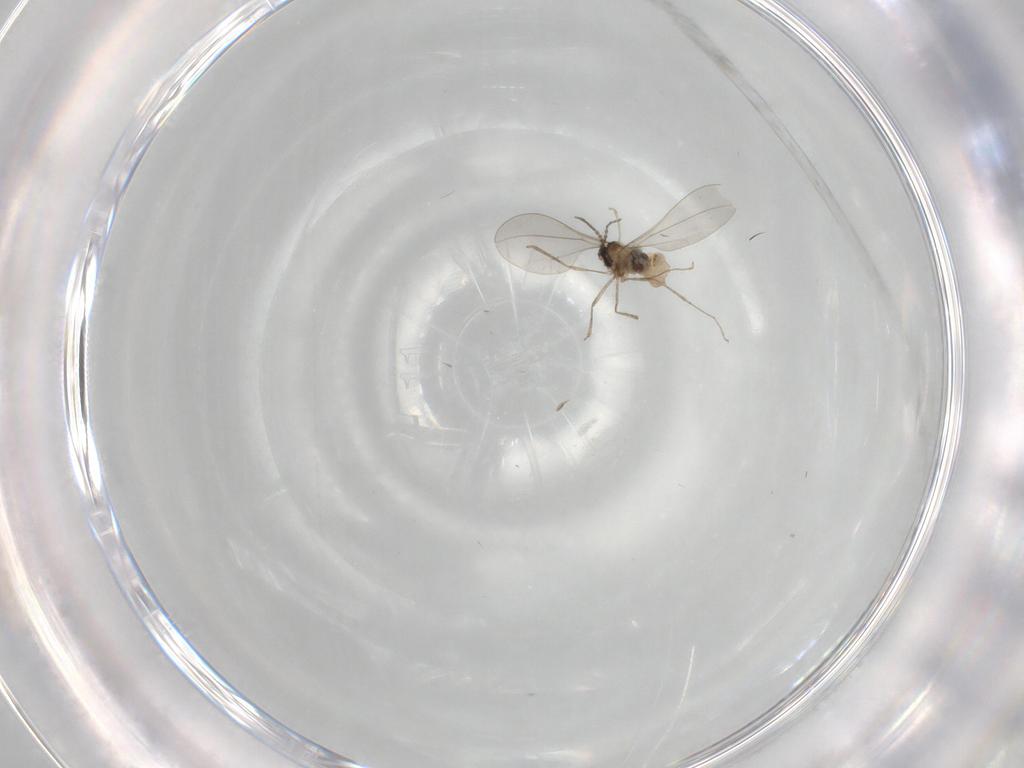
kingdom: Animalia
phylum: Arthropoda
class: Insecta
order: Diptera
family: Cecidomyiidae
